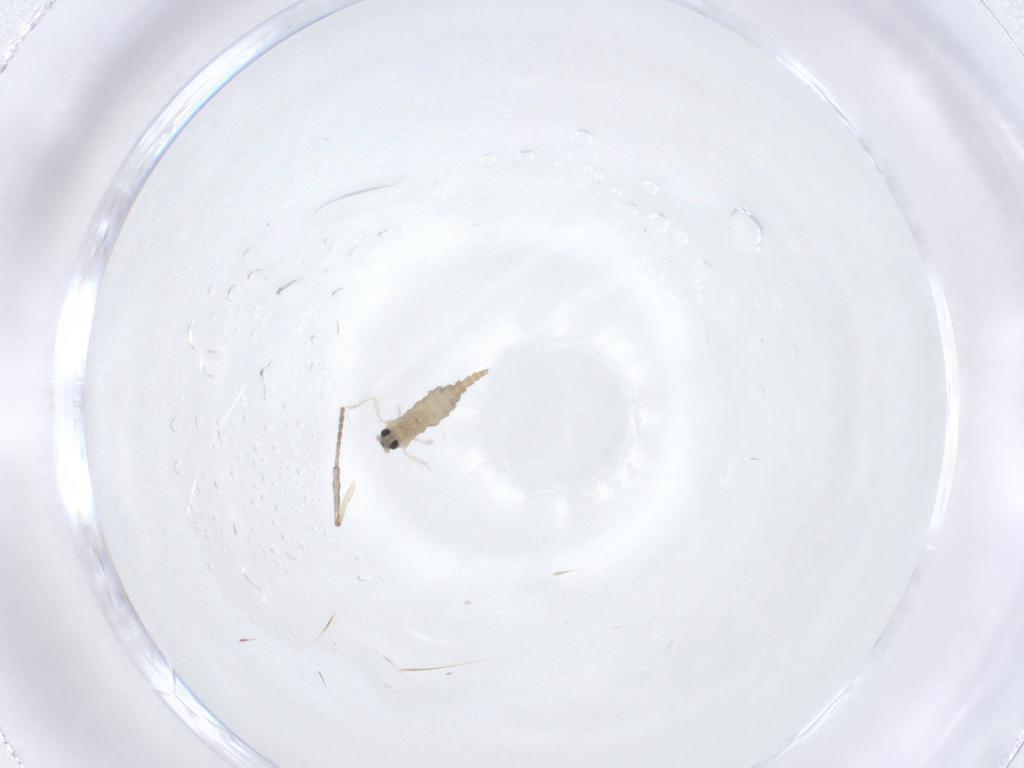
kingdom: Animalia
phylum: Arthropoda
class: Insecta
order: Diptera
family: Cecidomyiidae
